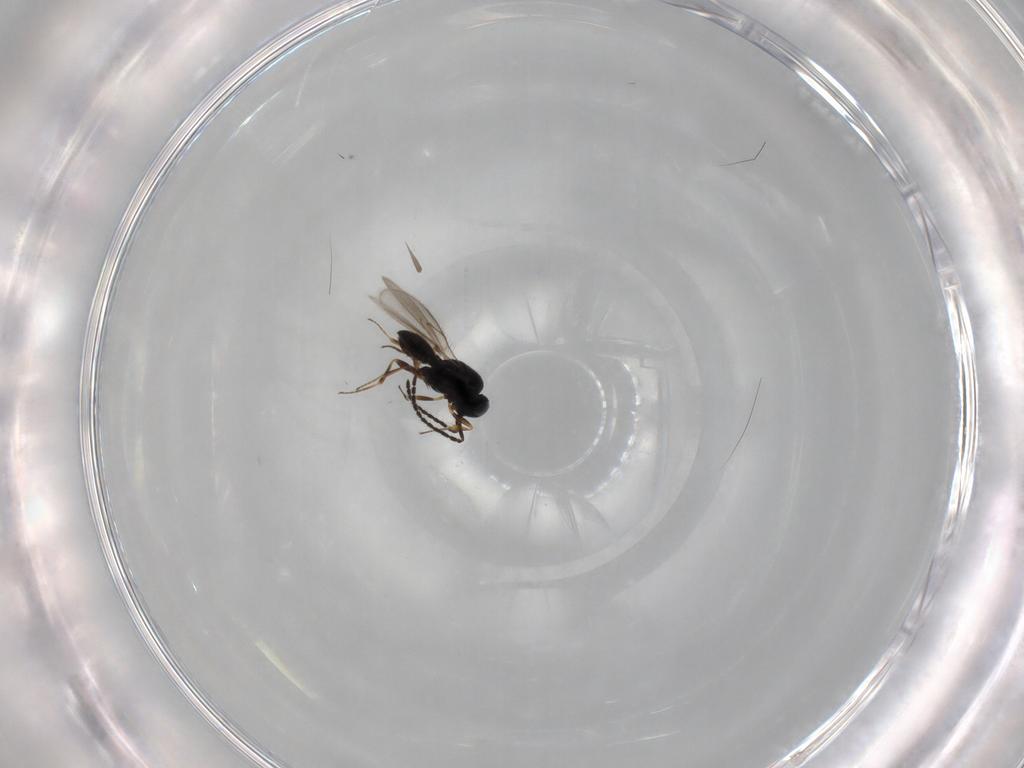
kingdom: Animalia
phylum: Arthropoda
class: Insecta
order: Hymenoptera
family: Scelionidae
